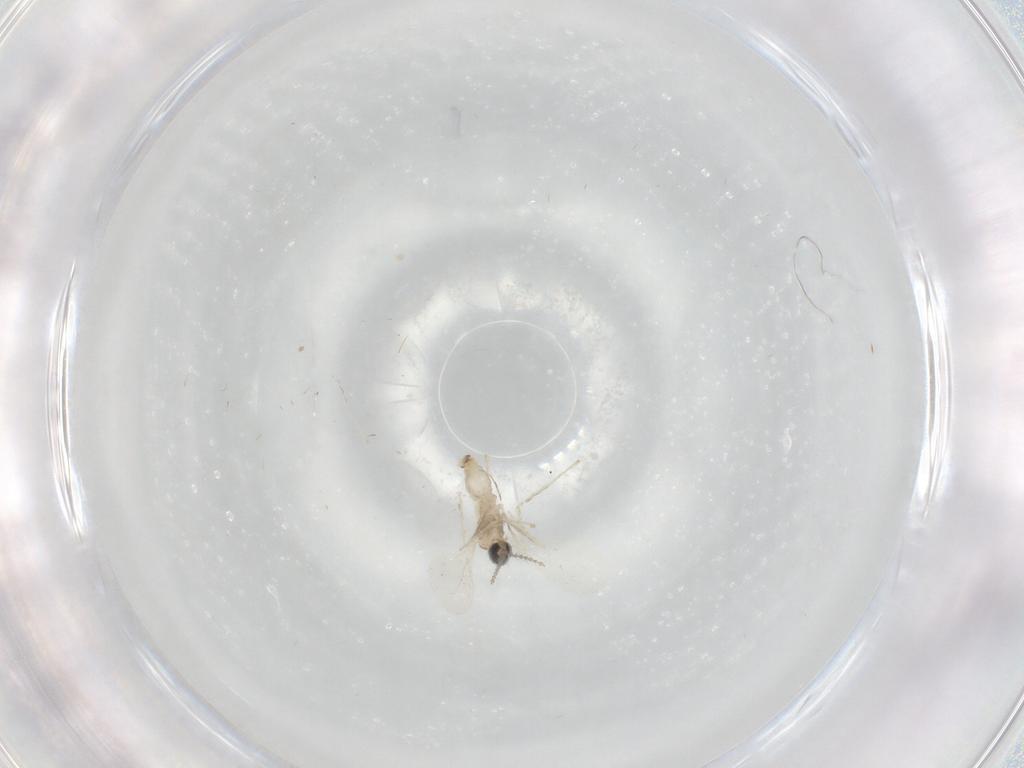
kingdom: Animalia
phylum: Arthropoda
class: Insecta
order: Diptera
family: Cecidomyiidae
